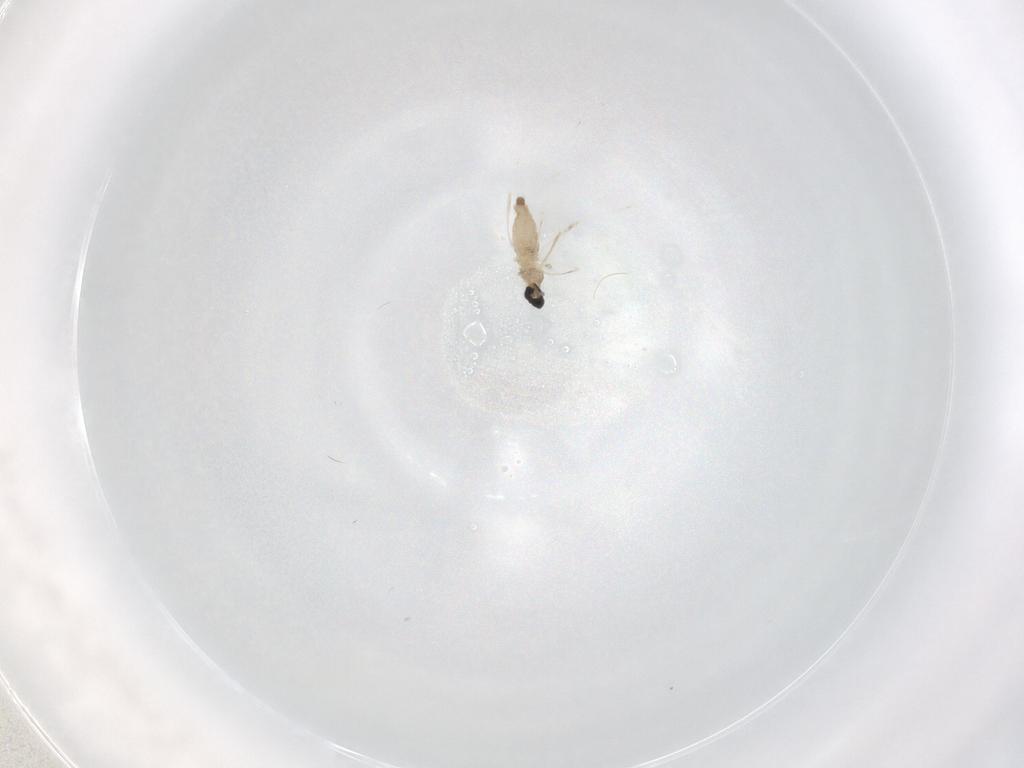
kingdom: Animalia
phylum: Arthropoda
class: Insecta
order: Diptera
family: Cecidomyiidae
